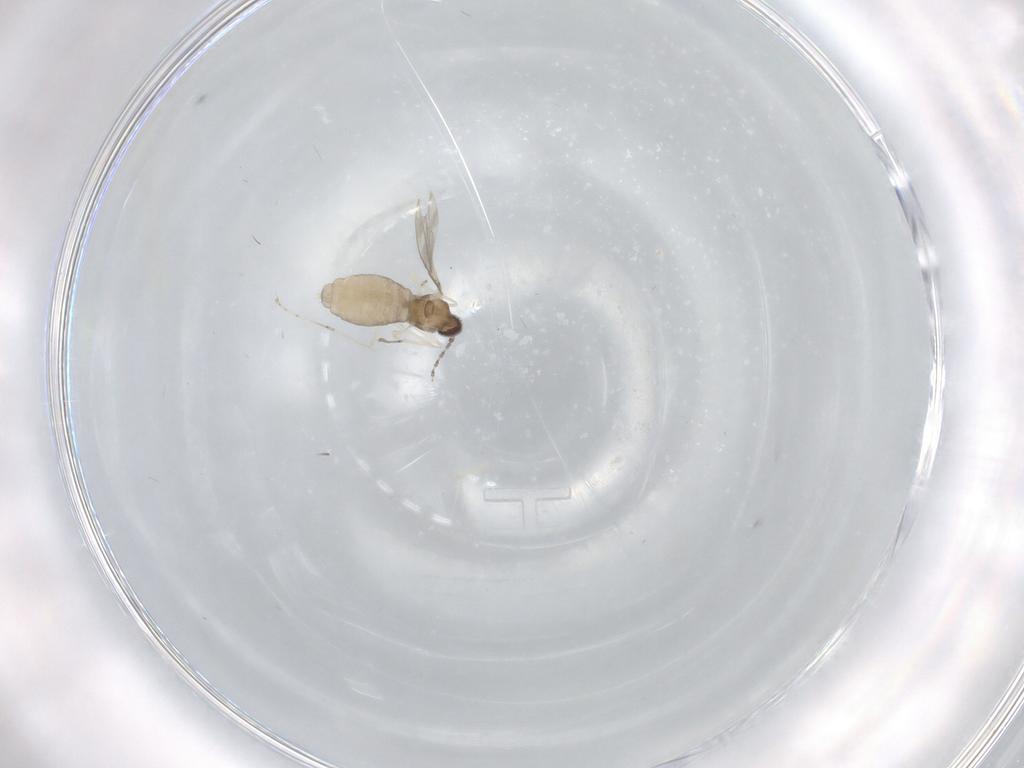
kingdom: Animalia
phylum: Arthropoda
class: Insecta
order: Diptera
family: Cecidomyiidae
